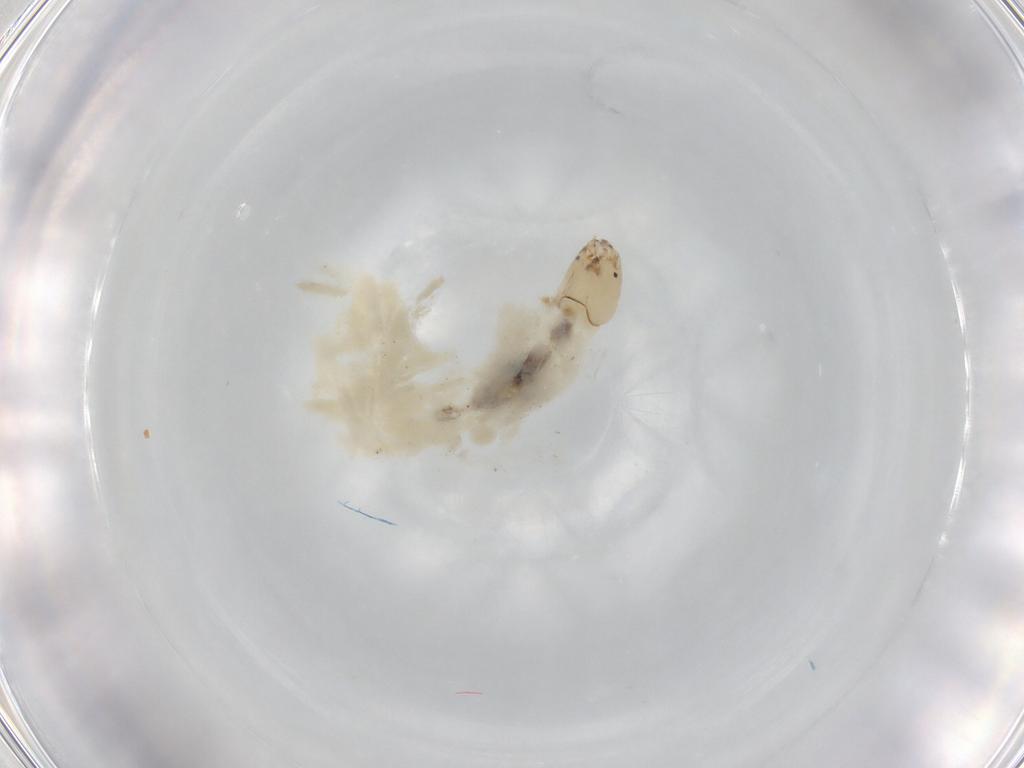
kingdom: Animalia
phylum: Arthropoda
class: Insecta
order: Diptera
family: Chironomidae
